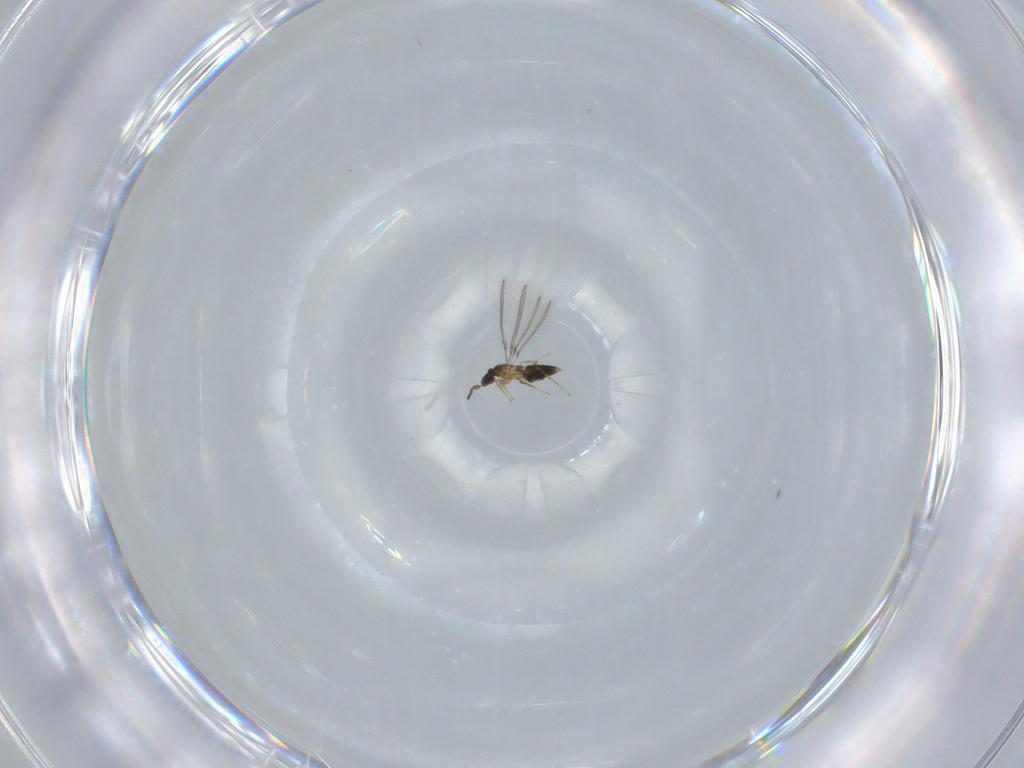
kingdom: Animalia
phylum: Arthropoda
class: Insecta
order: Hymenoptera
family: Mymaridae
